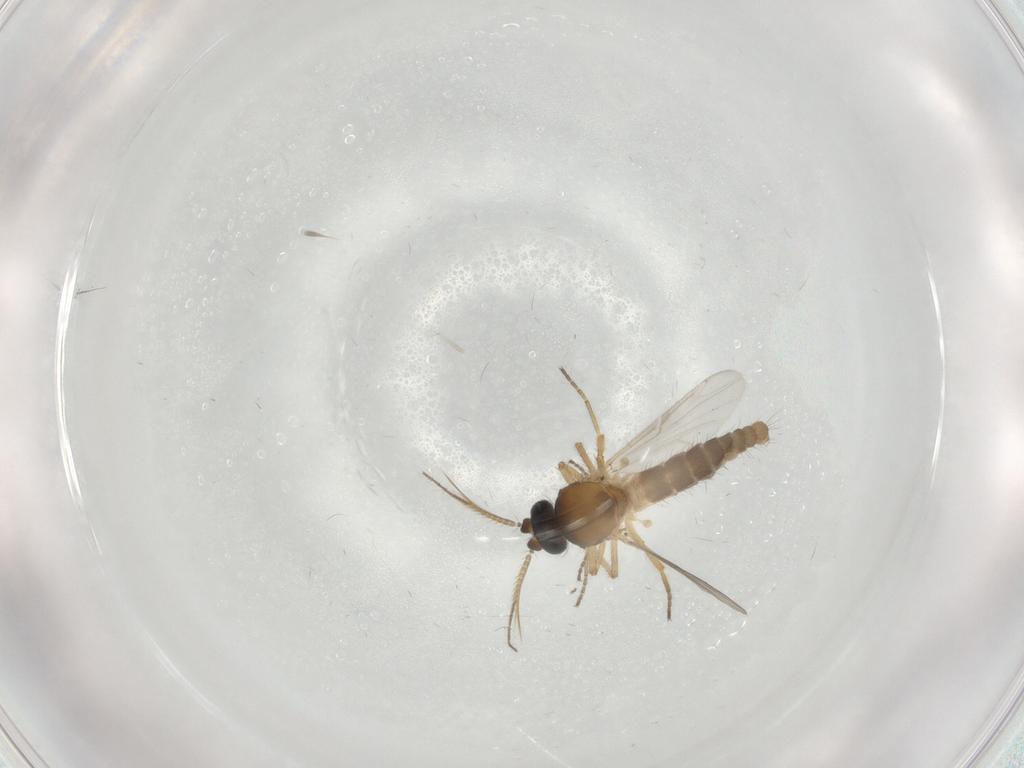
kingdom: Animalia
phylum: Arthropoda
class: Insecta
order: Diptera
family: Ceratopogonidae
